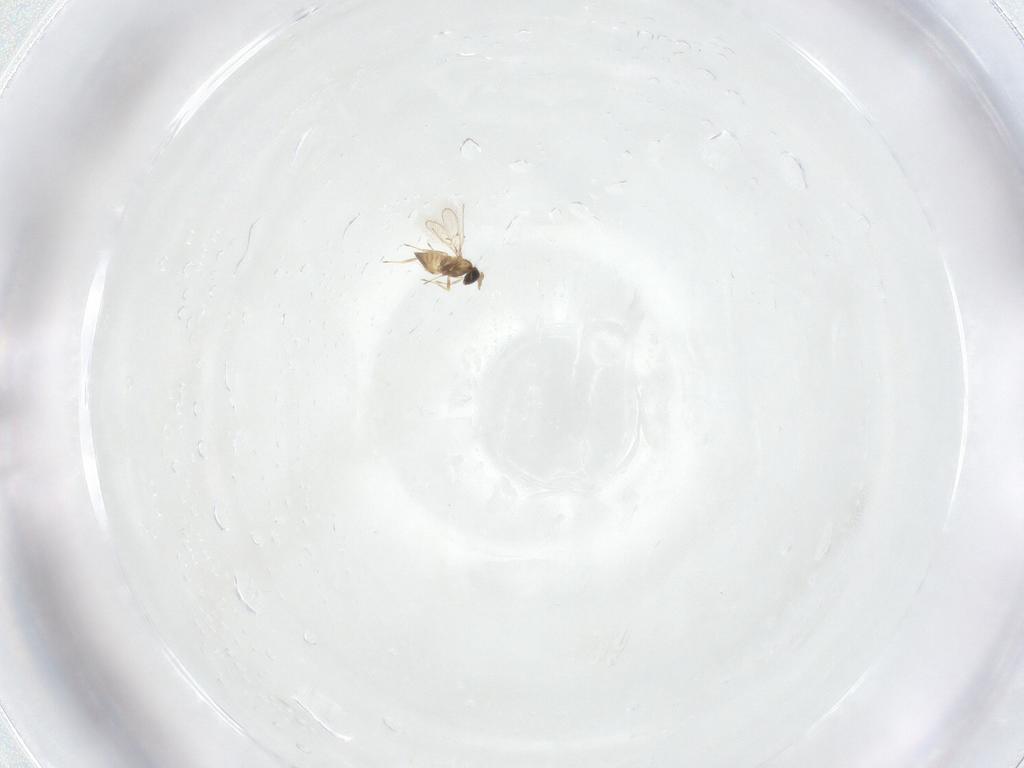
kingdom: Animalia
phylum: Arthropoda
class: Insecta
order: Hymenoptera
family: Trichogrammatidae
